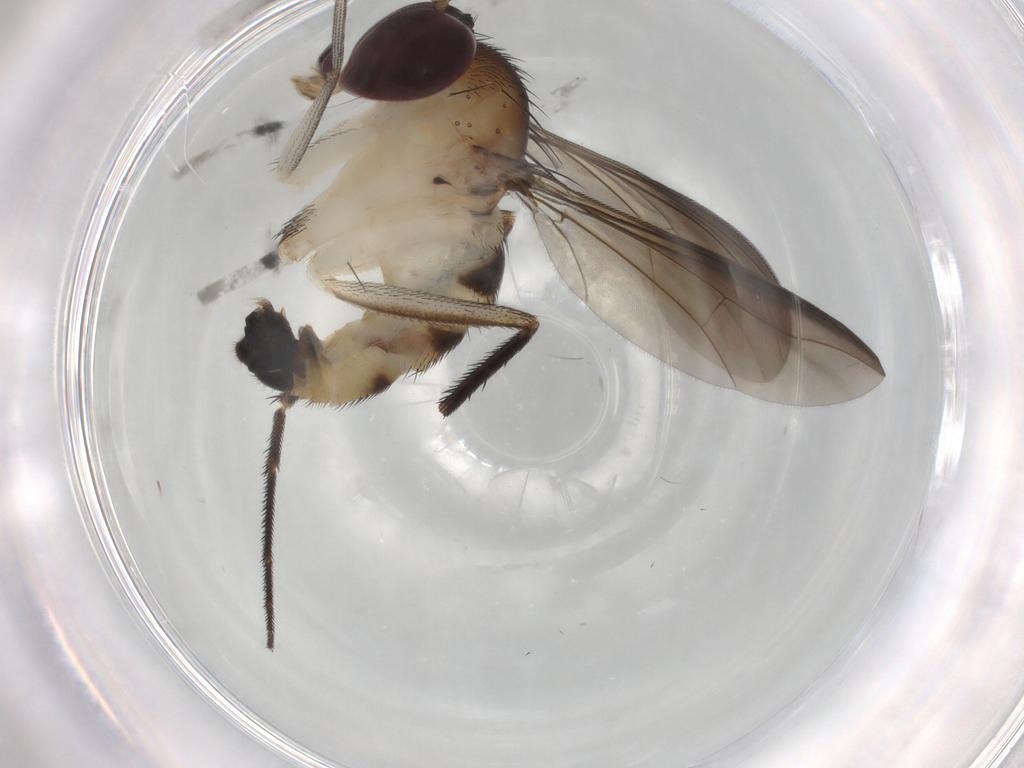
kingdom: Animalia
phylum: Arthropoda
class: Insecta
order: Diptera
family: Dolichopodidae
